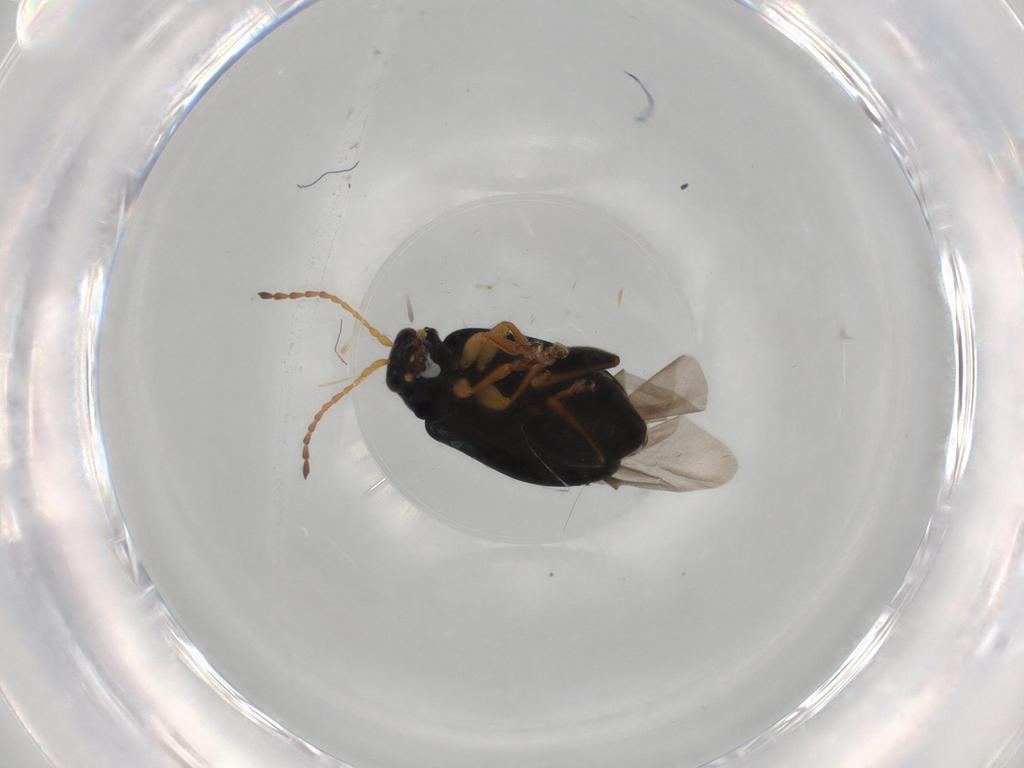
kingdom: Animalia
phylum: Arthropoda
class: Insecta
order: Coleoptera
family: Chrysomelidae
